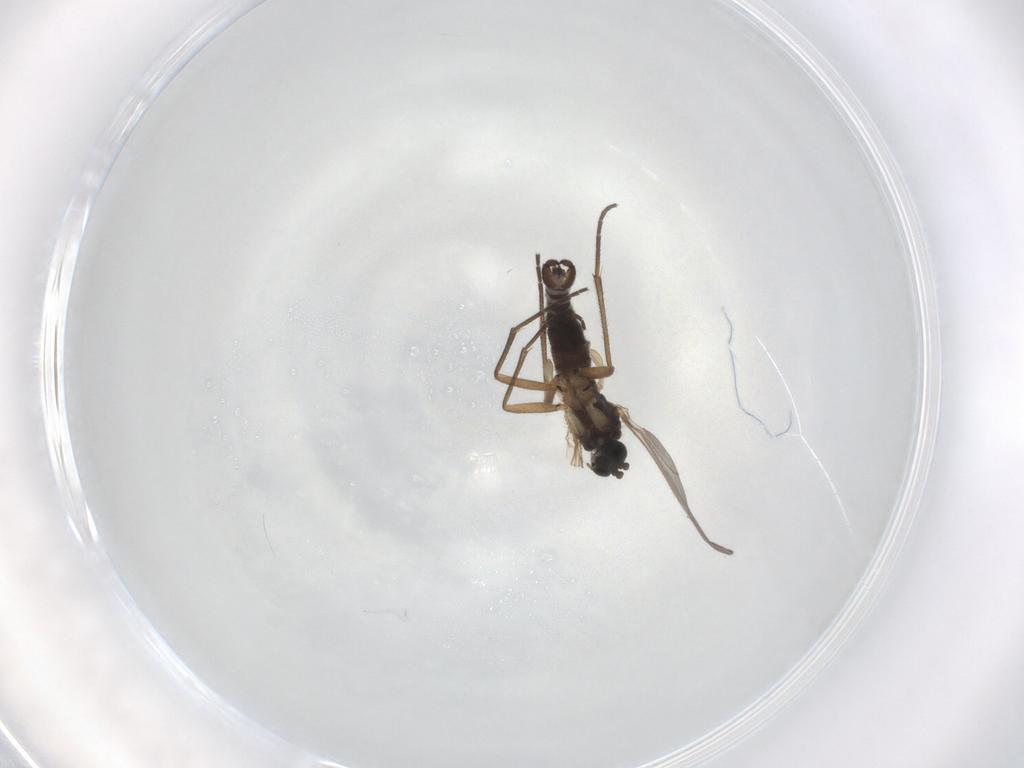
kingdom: Animalia
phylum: Arthropoda
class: Insecta
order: Diptera
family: Sciaridae
